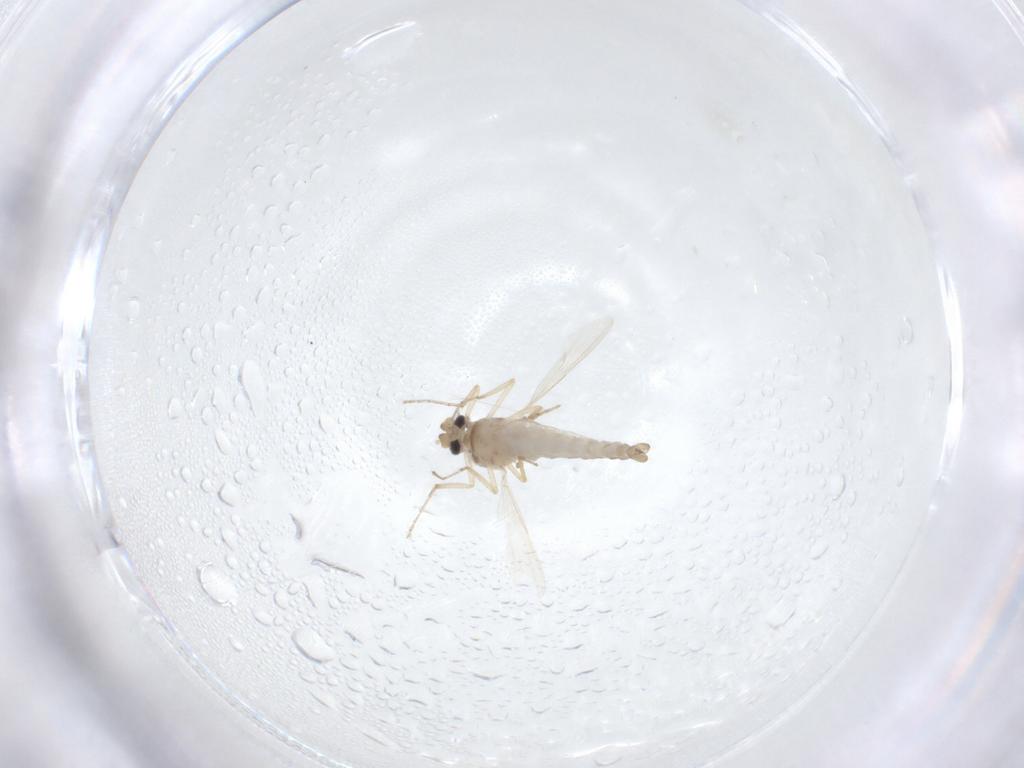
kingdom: Animalia
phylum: Arthropoda
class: Insecta
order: Diptera
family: Ceratopogonidae
